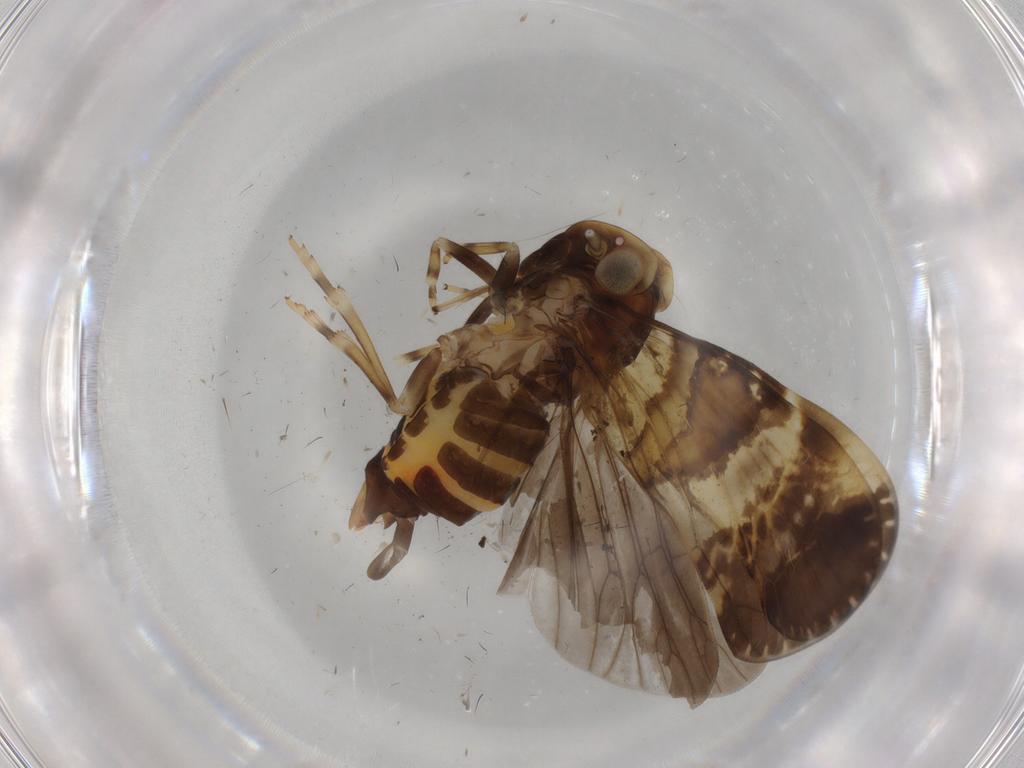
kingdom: Animalia
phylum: Arthropoda
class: Insecta
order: Hemiptera
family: Cixiidae
